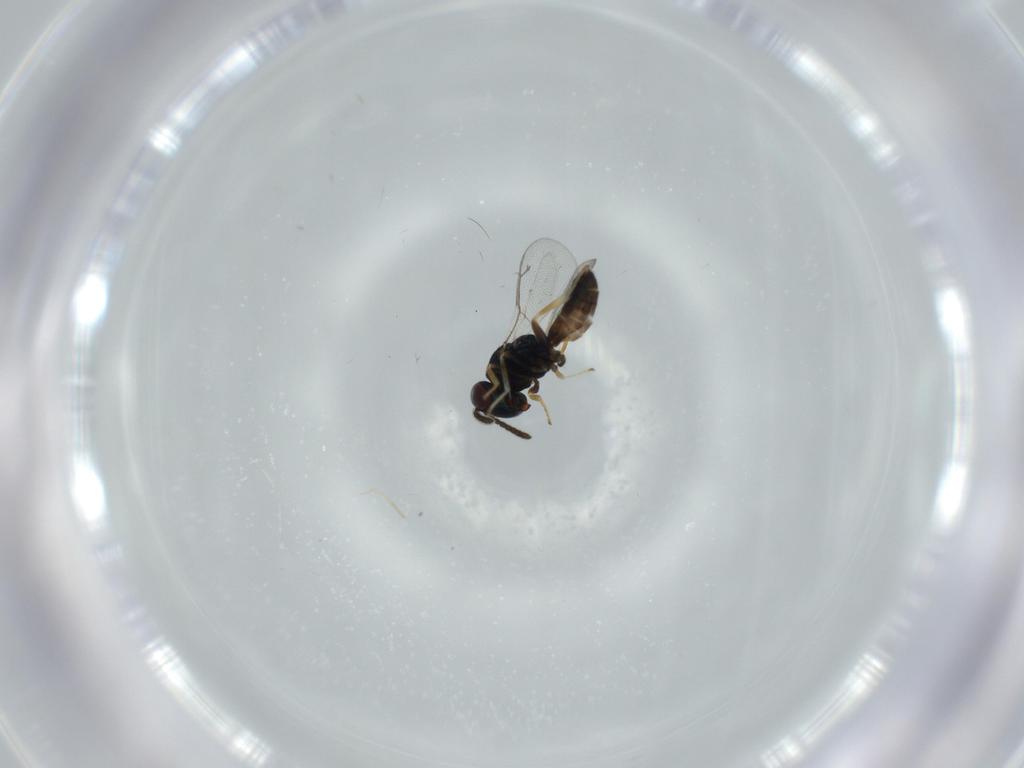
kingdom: Animalia
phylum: Arthropoda
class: Insecta
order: Hymenoptera
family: Pteromalidae
